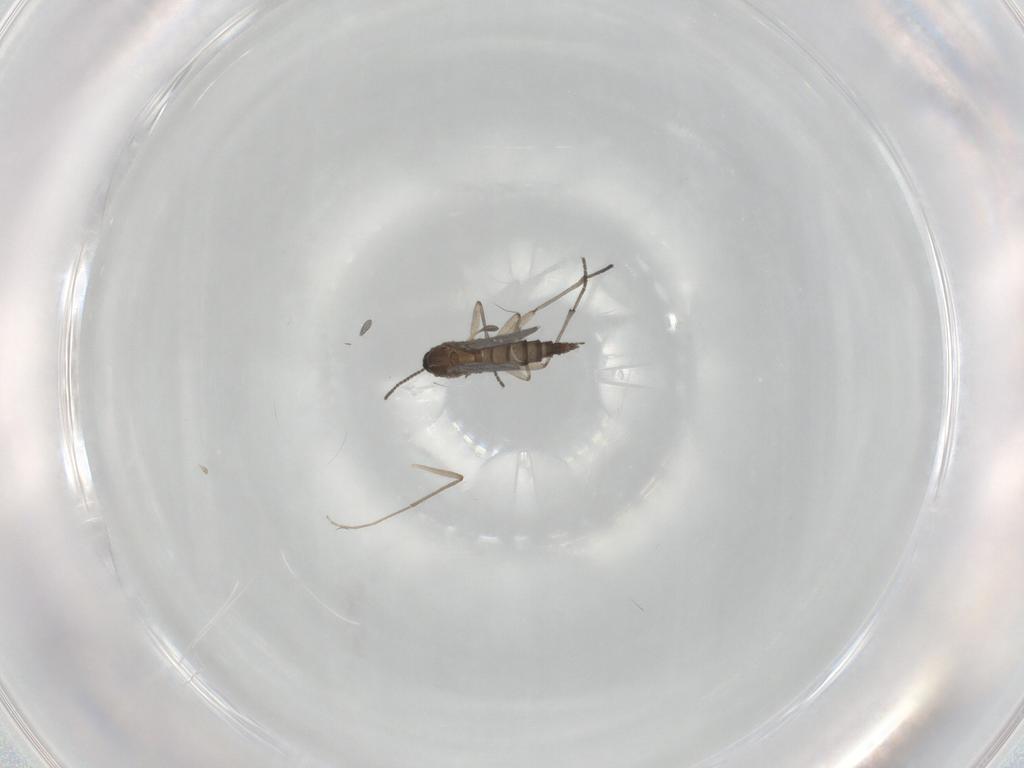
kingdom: Animalia
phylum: Arthropoda
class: Insecta
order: Diptera
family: Sciaridae
